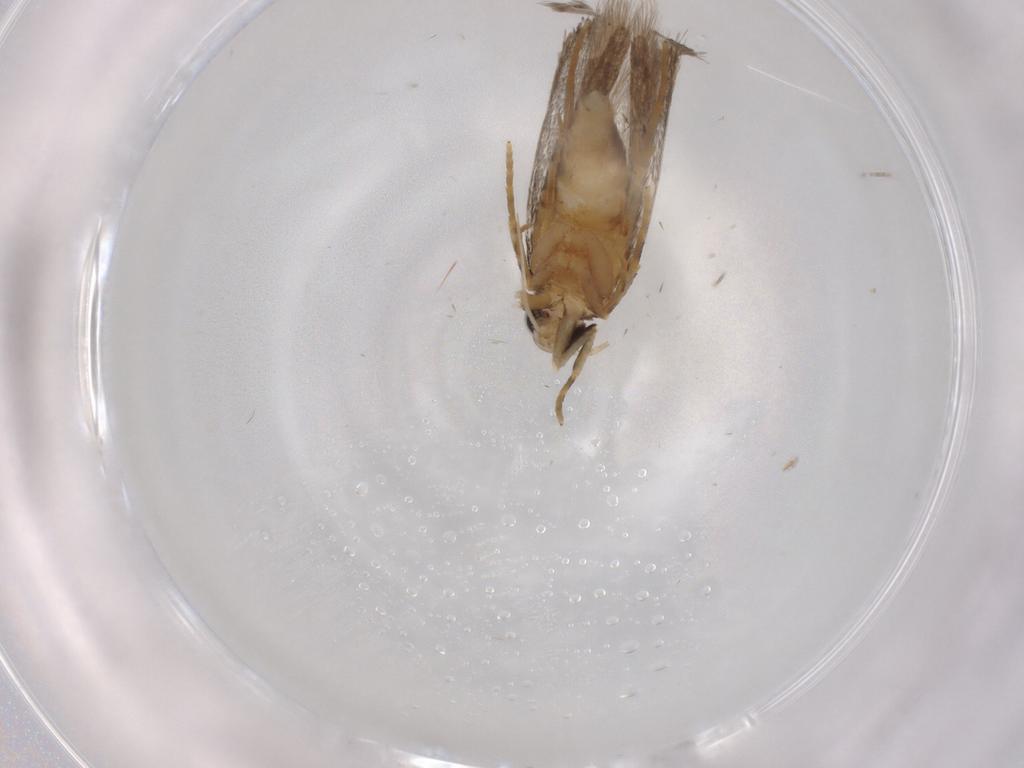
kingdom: Animalia
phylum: Arthropoda
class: Insecta
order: Lepidoptera
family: Autostichidae
